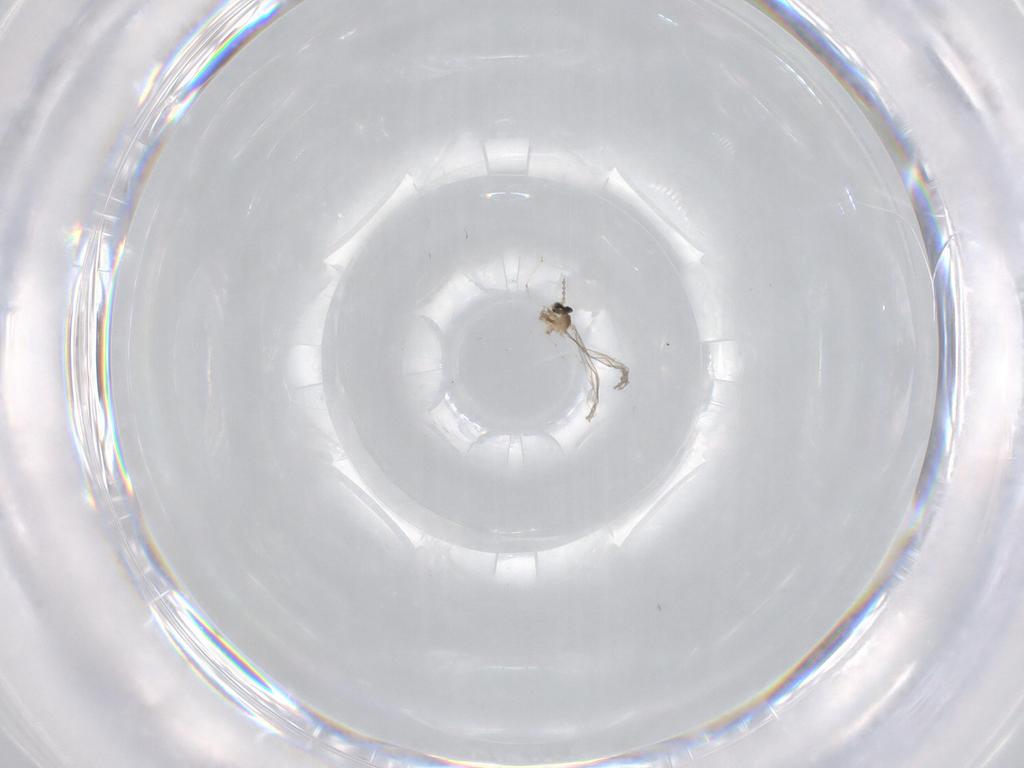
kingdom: Animalia
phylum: Arthropoda
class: Insecta
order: Diptera
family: Cecidomyiidae
